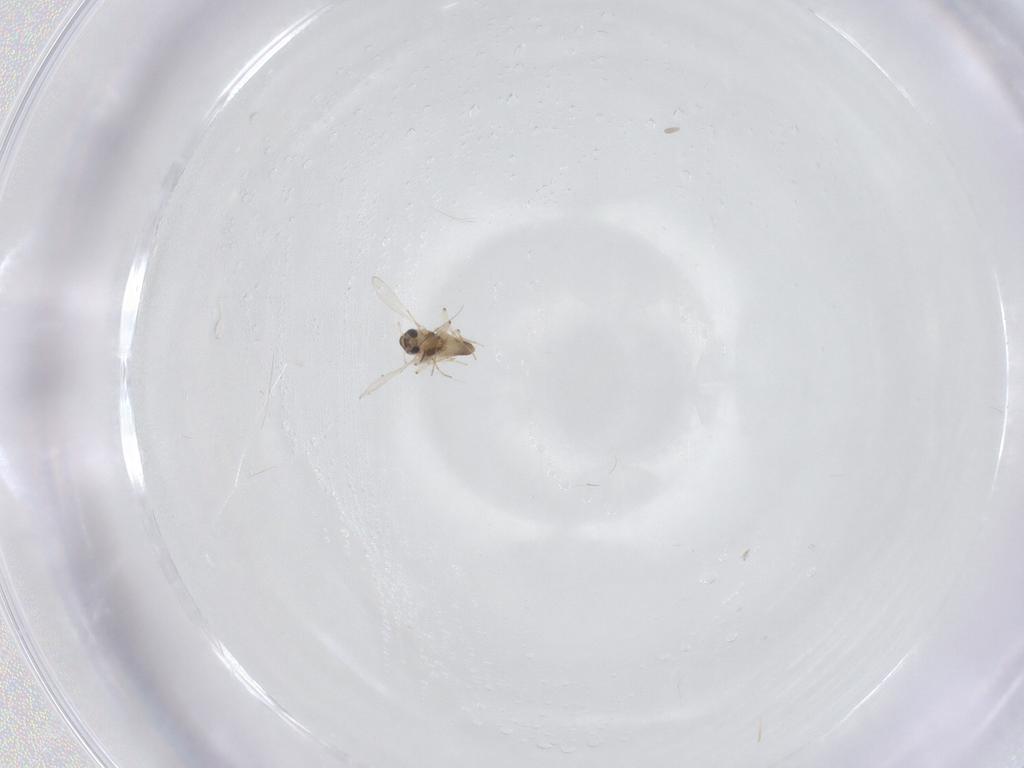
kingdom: Animalia
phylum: Arthropoda
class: Insecta
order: Diptera
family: Chironomidae
